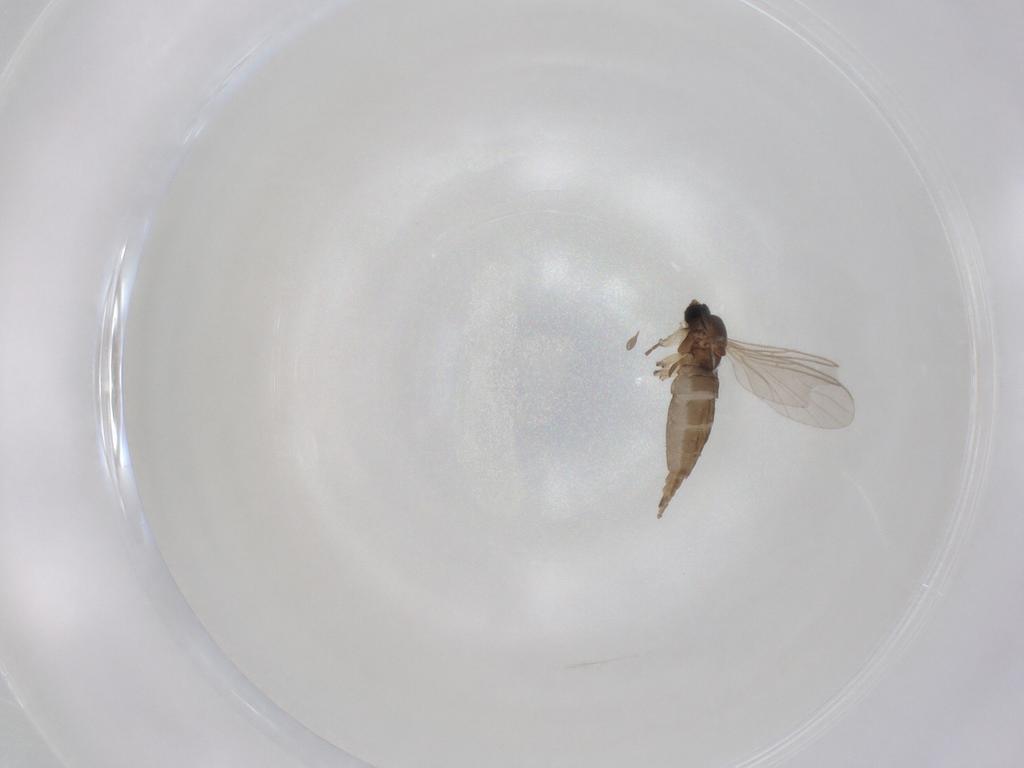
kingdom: Animalia
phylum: Arthropoda
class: Insecta
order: Diptera
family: Sciaridae
